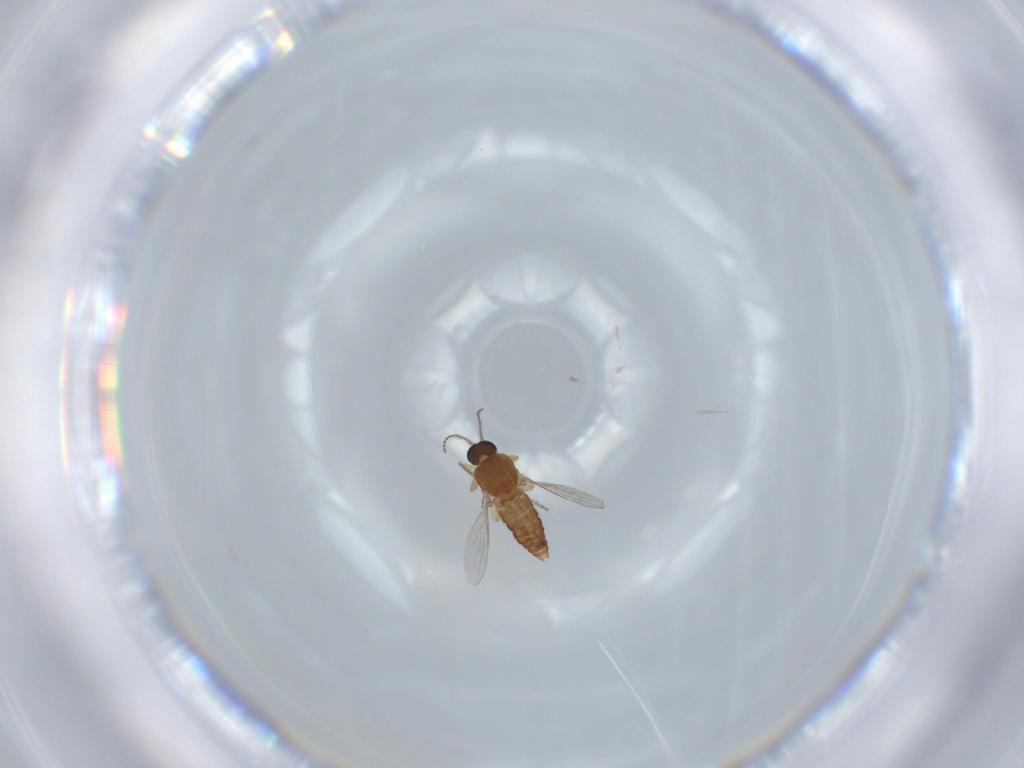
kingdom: Animalia
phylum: Arthropoda
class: Insecta
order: Diptera
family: Ceratopogonidae
